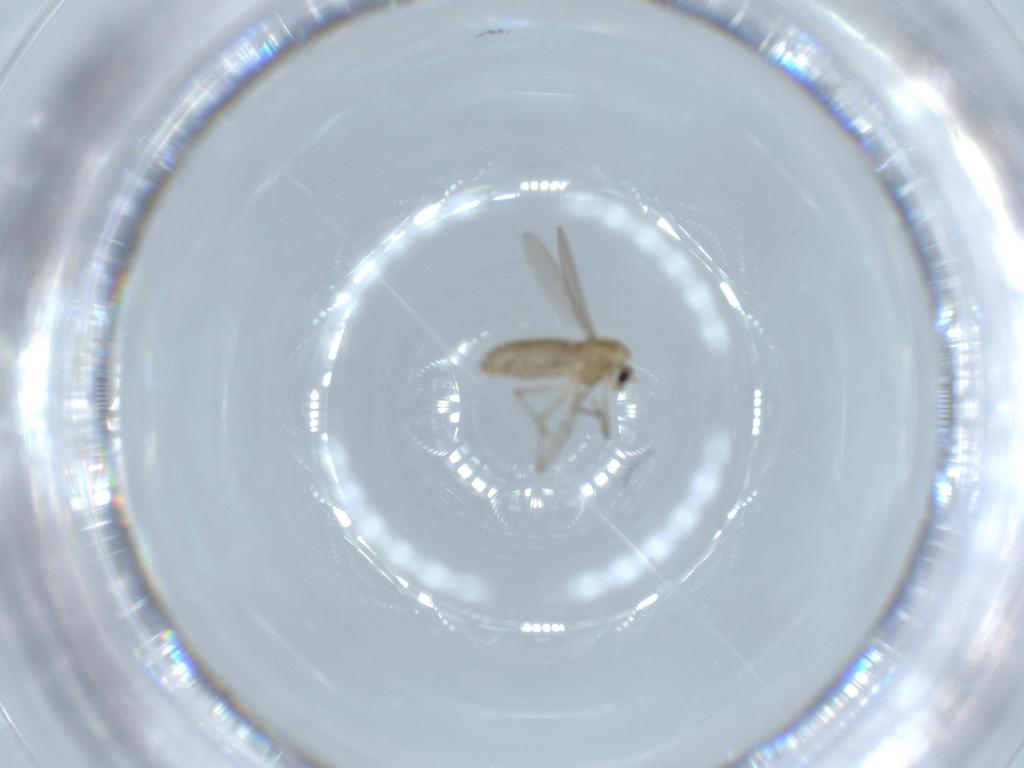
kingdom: Animalia
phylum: Arthropoda
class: Insecta
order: Diptera
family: Chironomidae
